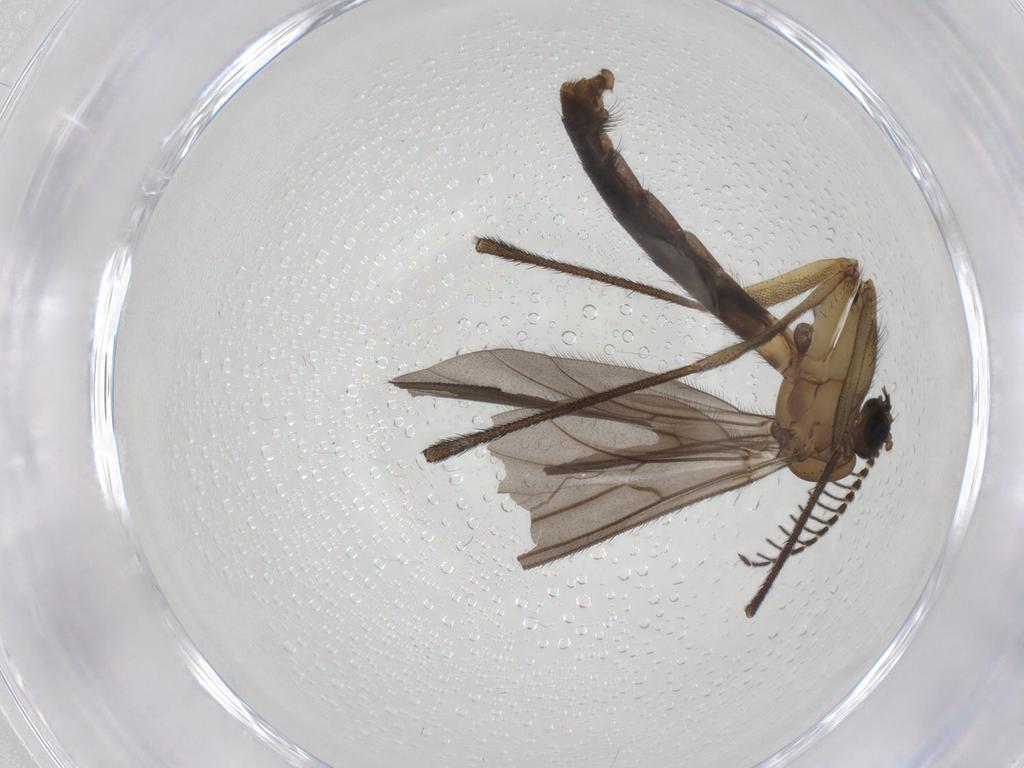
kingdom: Animalia
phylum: Arthropoda
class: Insecta
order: Diptera
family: Ditomyiidae
